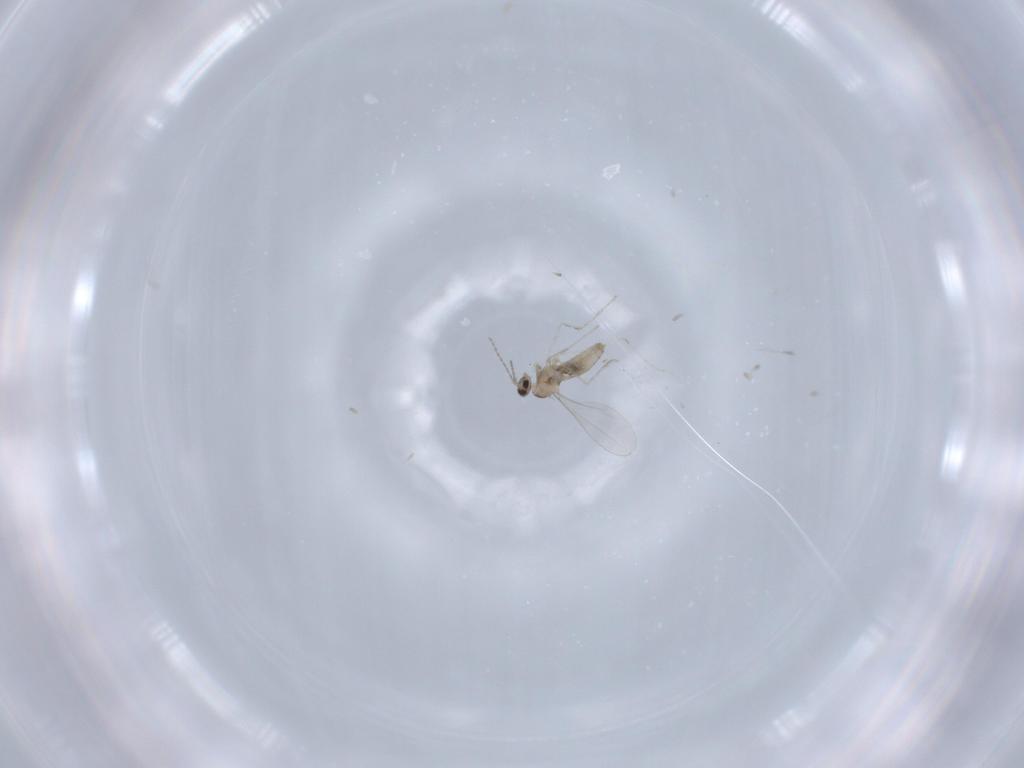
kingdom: Animalia
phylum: Arthropoda
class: Insecta
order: Diptera
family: Cecidomyiidae
